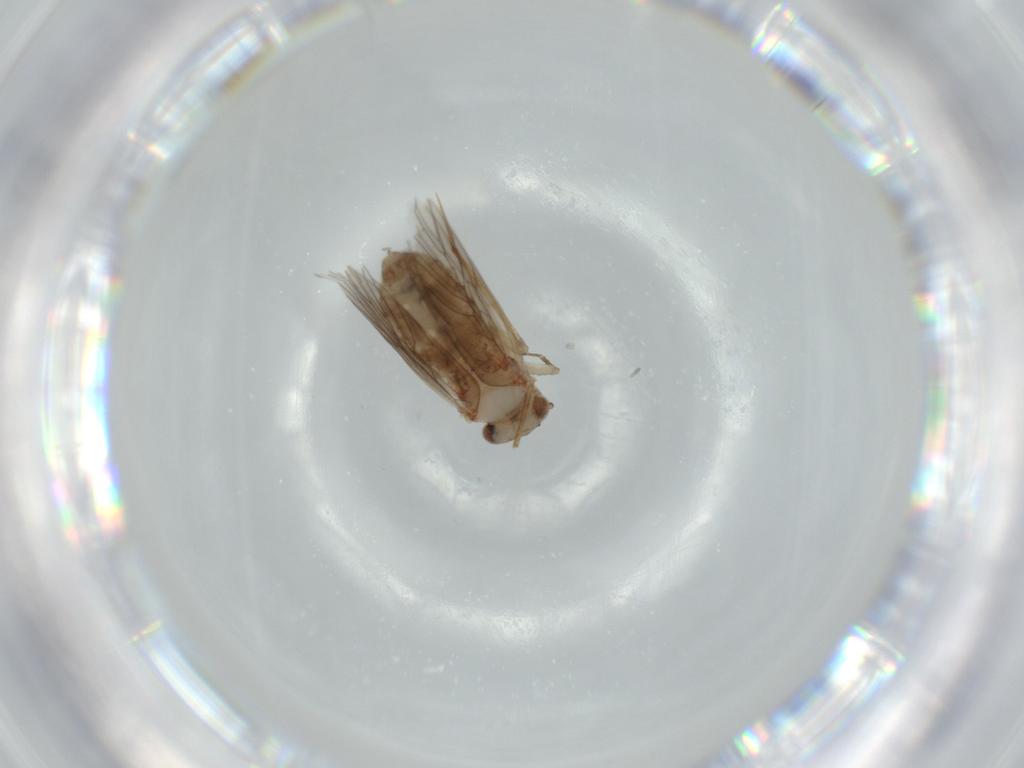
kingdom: Animalia
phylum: Arthropoda
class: Insecta
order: Psocodea
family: Lepidopsocidae
